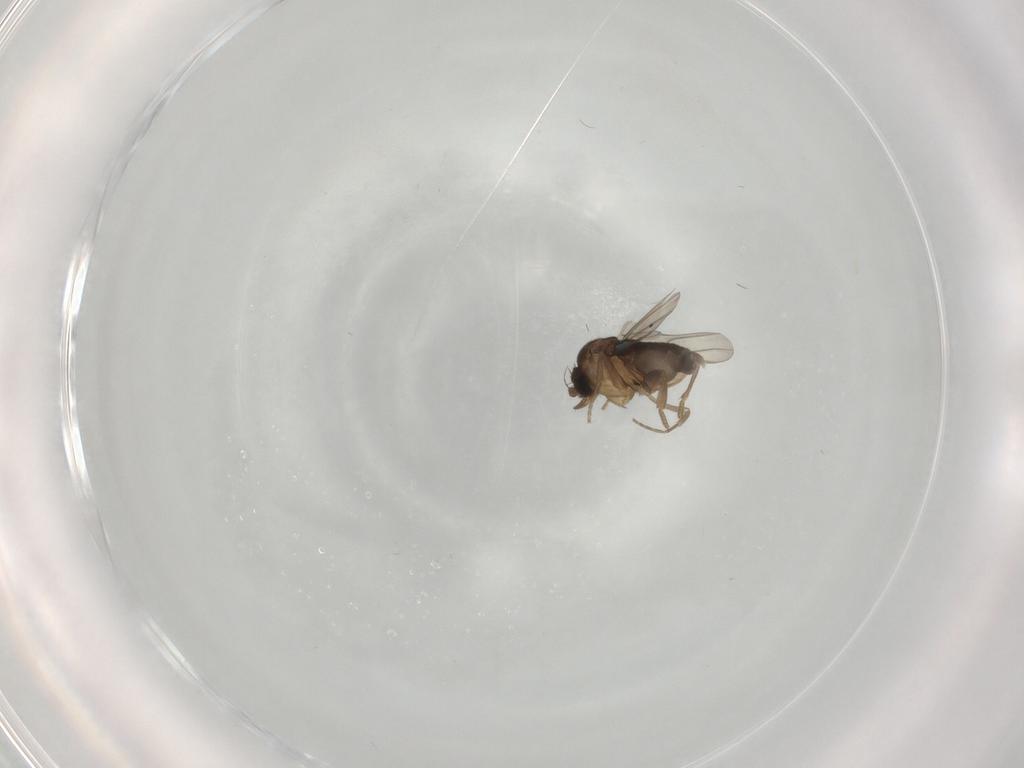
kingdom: Animalia
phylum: Arthropoda
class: Insecta
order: Diptera
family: Phoridae
